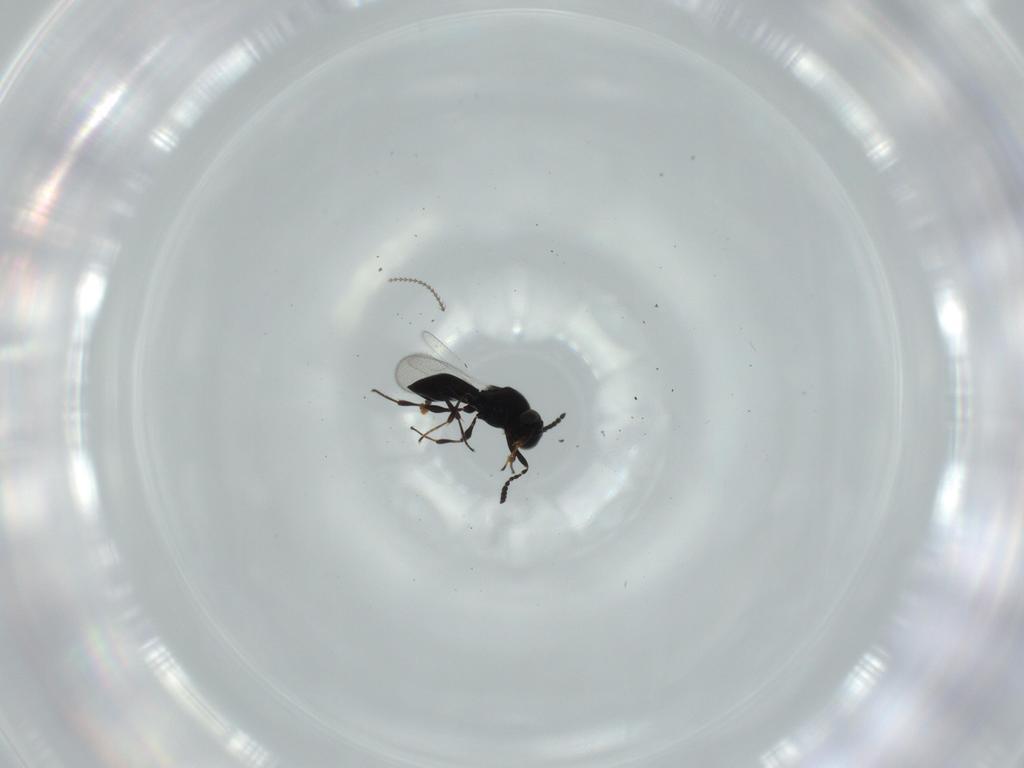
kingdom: Animalia
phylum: Arthropoda
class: Insecta
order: Hymenoptera
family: Platygastridae
